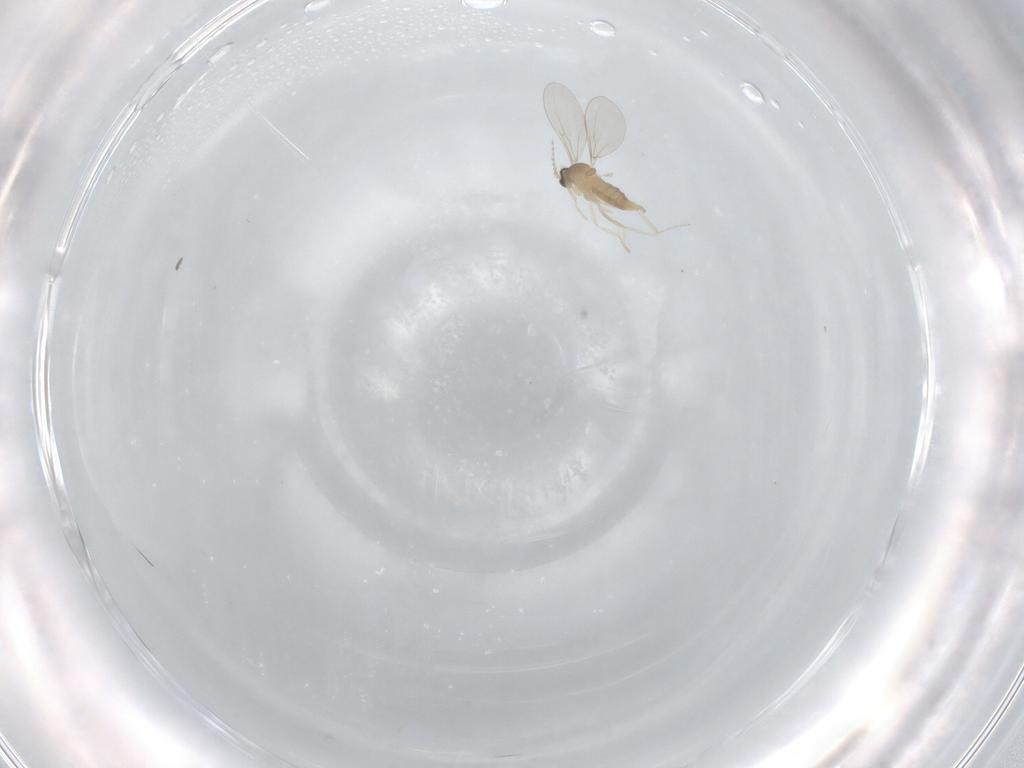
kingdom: Animalia
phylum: Arthropoda
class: Insecta
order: Diptera
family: Cecidomyiidae
